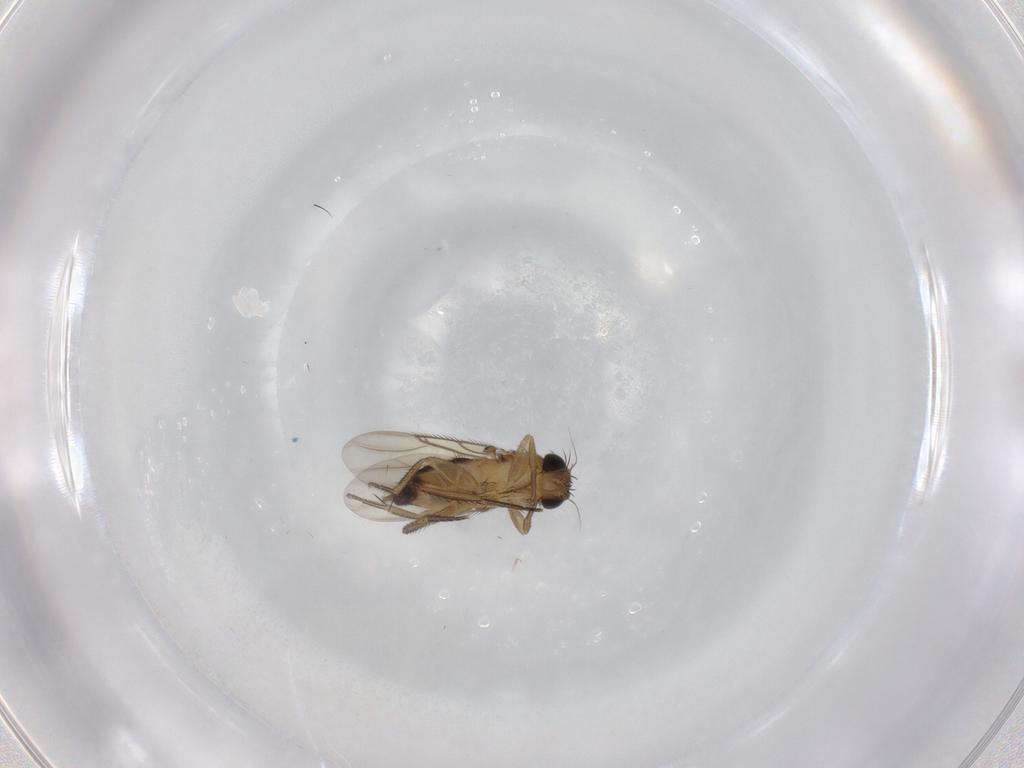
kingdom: Animalia
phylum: Arthropoda
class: Insecta
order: Diptera
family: Phoridae
